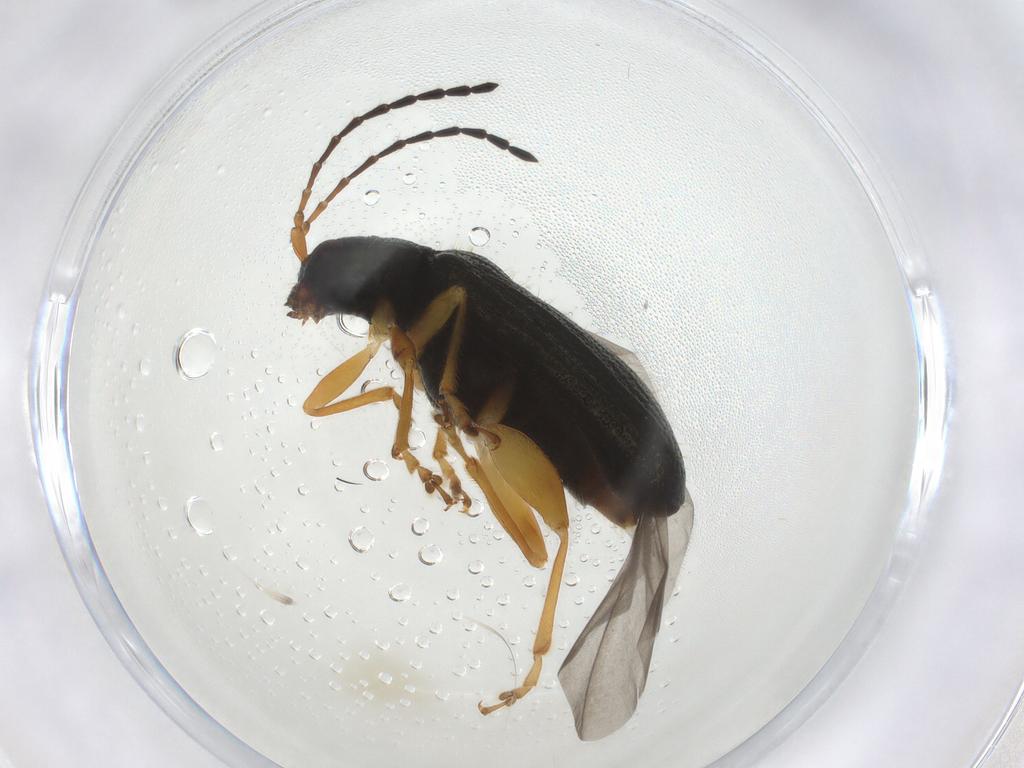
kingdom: Animalia
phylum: Arthropoda
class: Insecta
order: Coleoptera
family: Chrysomelidae
